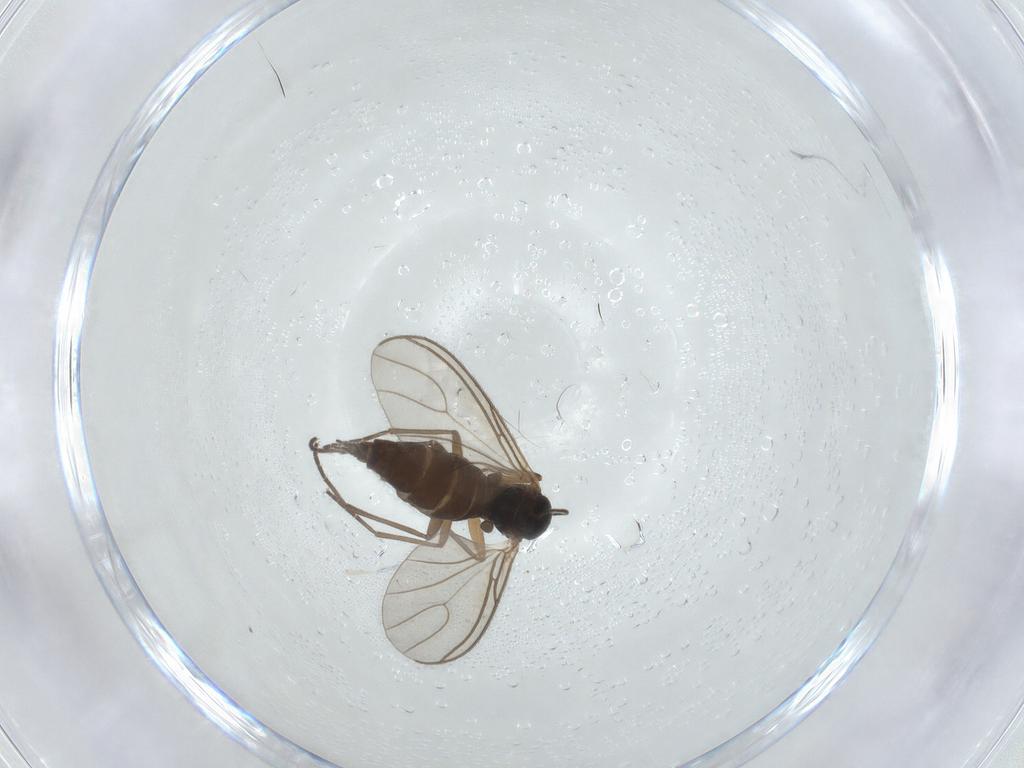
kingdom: Animalia
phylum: Arthropoda
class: Insecta
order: Diptera
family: Sciaridae
